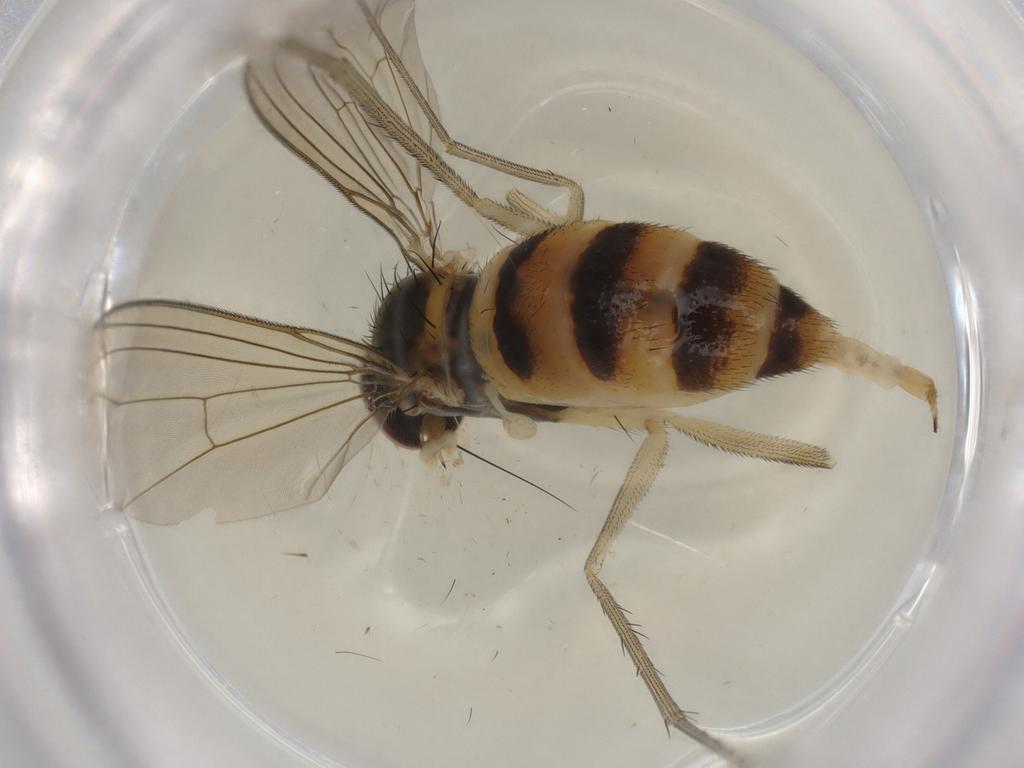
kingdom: Animalia
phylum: Arthropoda
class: Insecta
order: Diptera
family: Dolichopodidae
